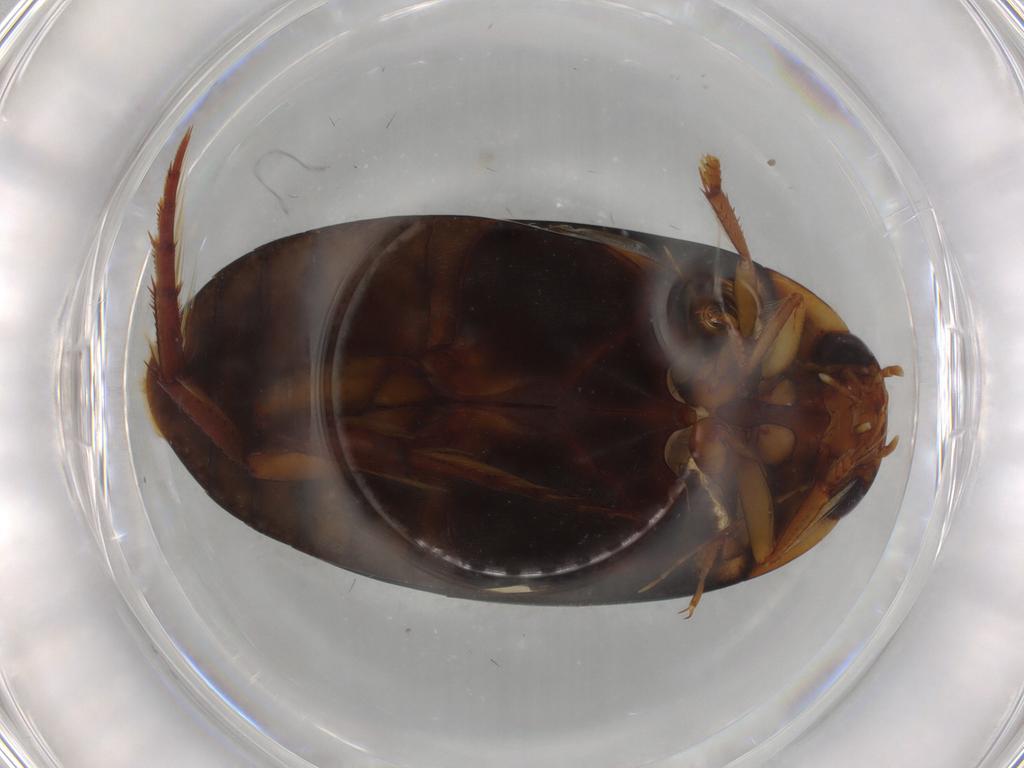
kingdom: Animalia
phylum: Arthropoda
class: Insecta
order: Coleoptera
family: Dytiscidae
